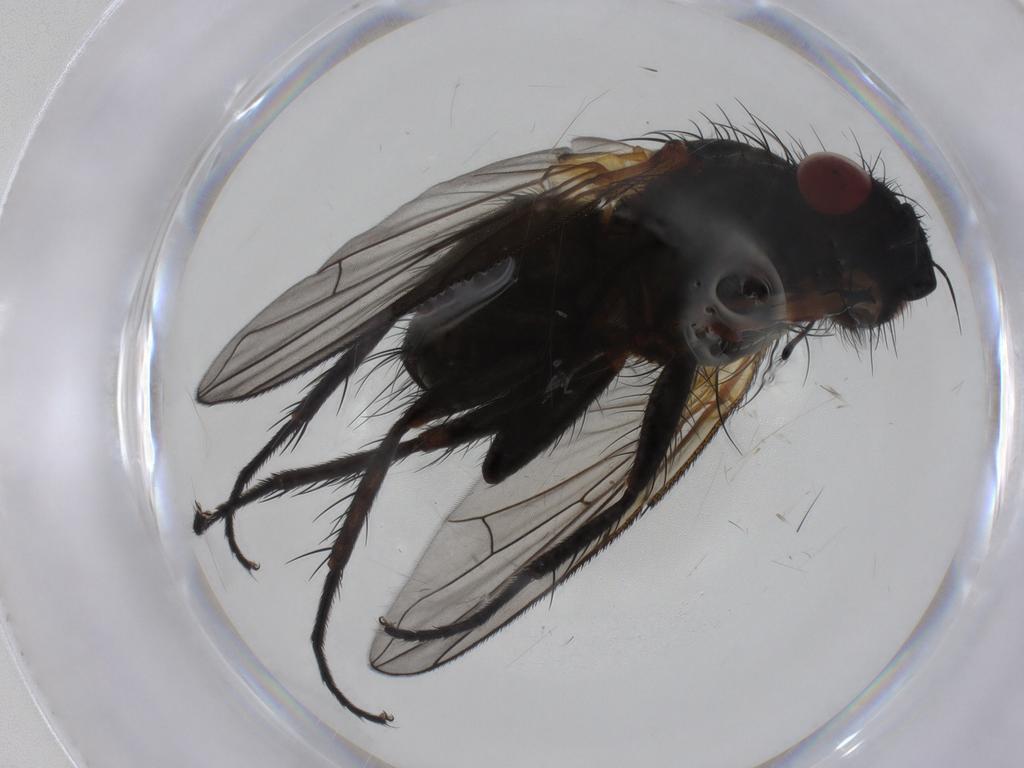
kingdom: Animalia
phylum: Arthropoda
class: Insecta
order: Diptera
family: Tachinidae
